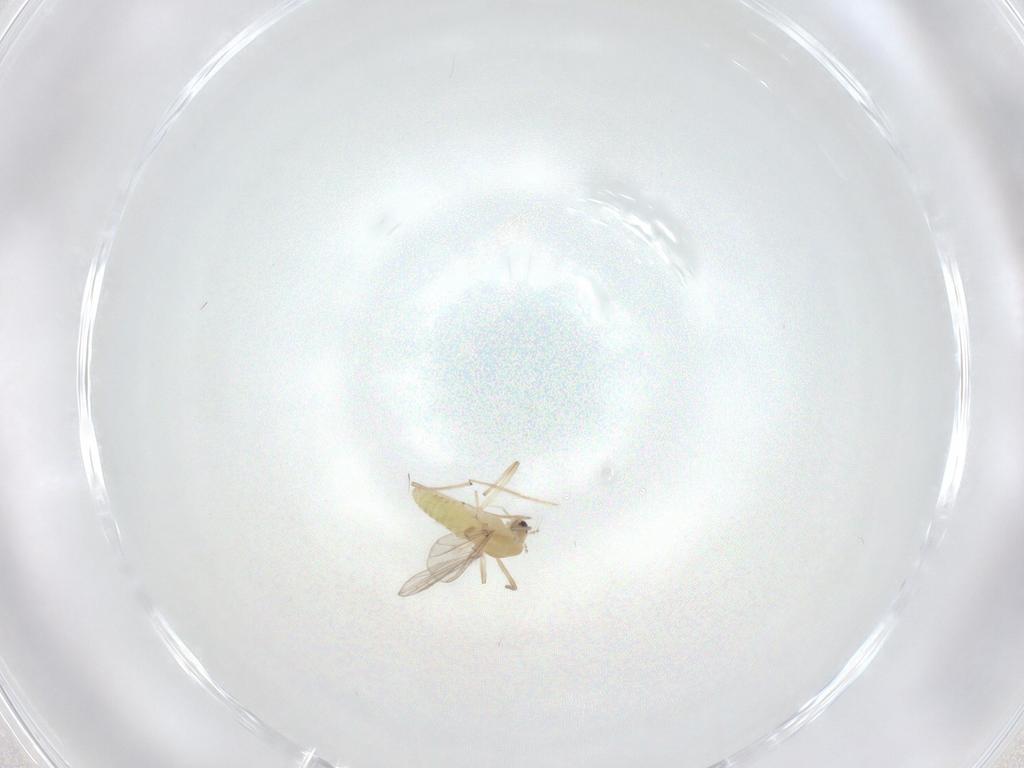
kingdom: Animalia
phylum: Arthropoda
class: Insecta
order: Diptera
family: Chironomidae
